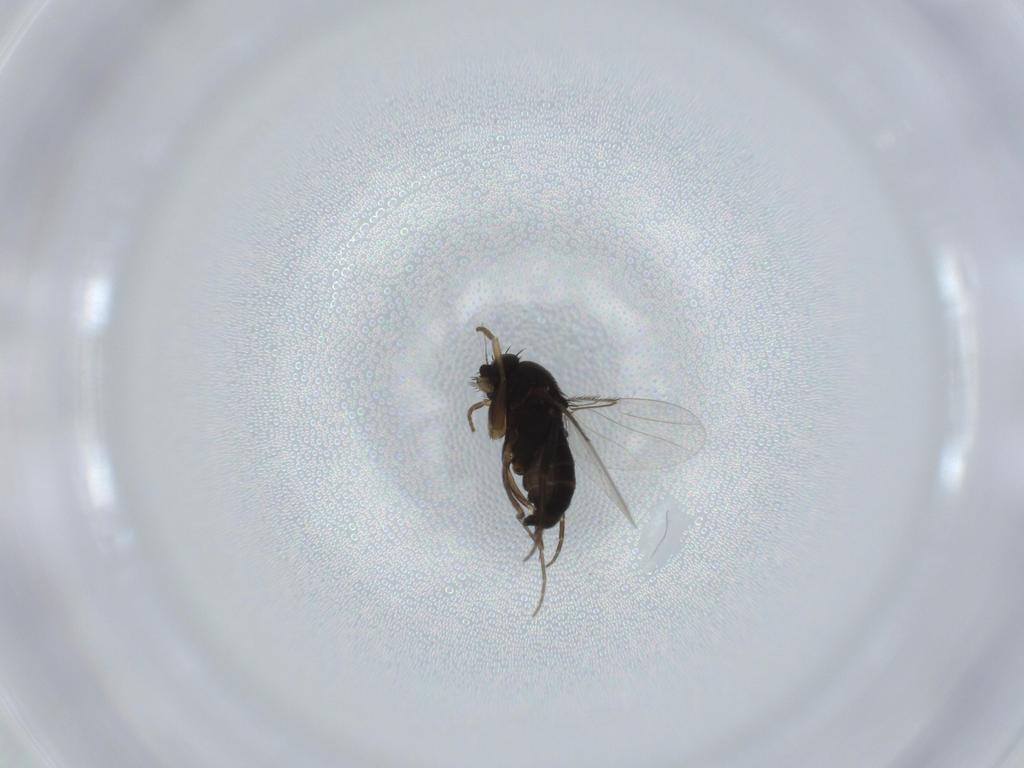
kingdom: Animalia
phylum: Arthropoda
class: Insecta
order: Diptera
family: Phoridae
